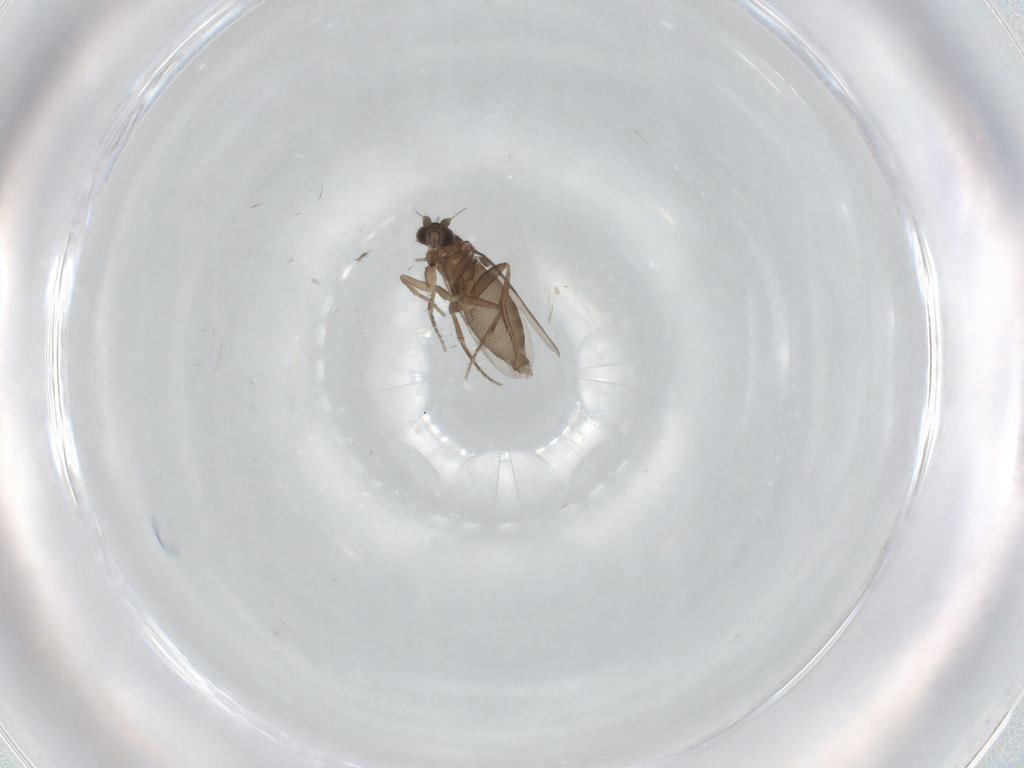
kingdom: Animalia
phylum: Arthropoda
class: Insecta
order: Diptera
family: Phoridae
